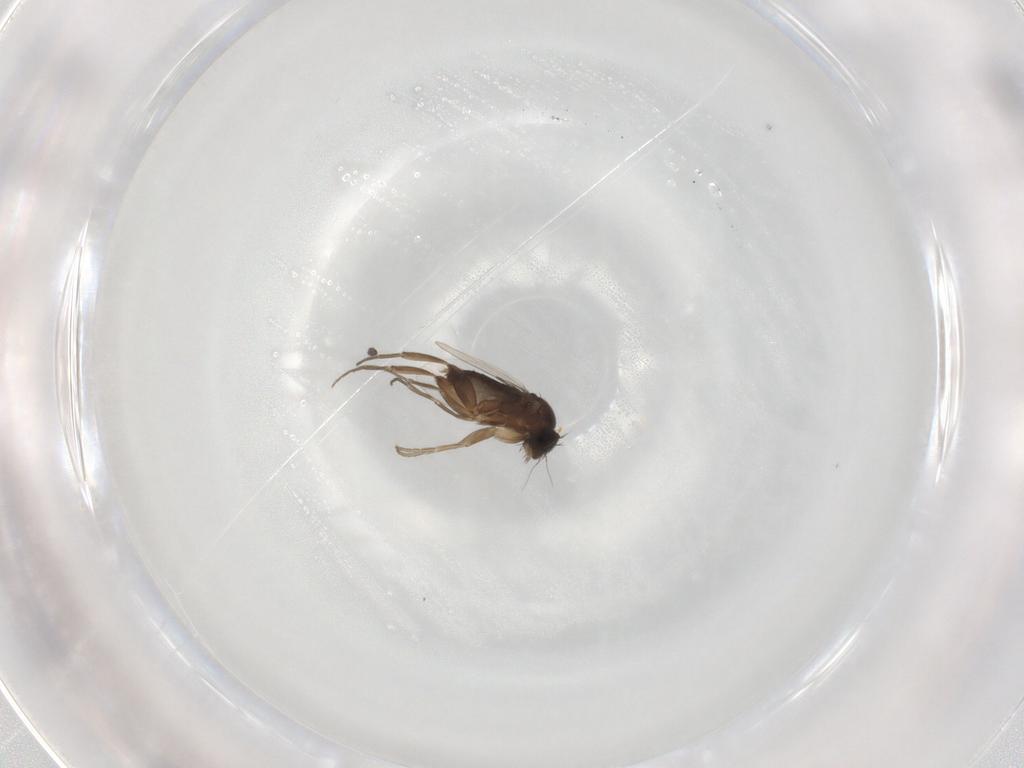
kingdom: Animalia
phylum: Arthropoda
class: Insecta
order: Diptera
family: Phoridae
